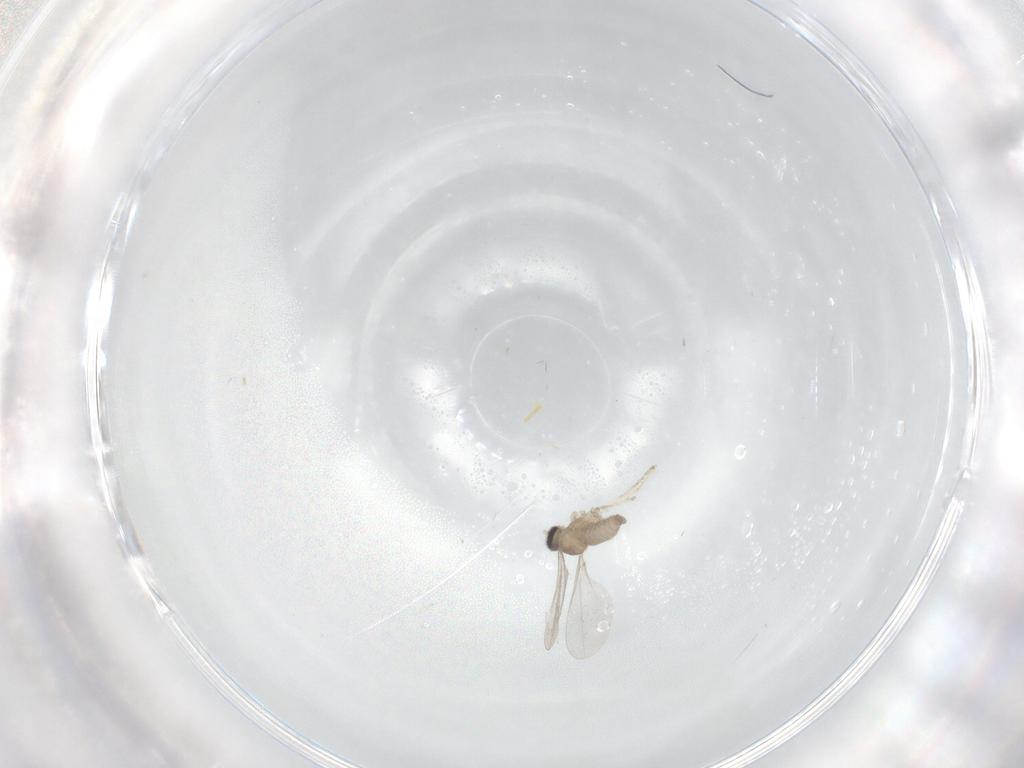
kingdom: Animalia
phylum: Arthropoda
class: Insecta
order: Diptera
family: Cecidomyiidae
